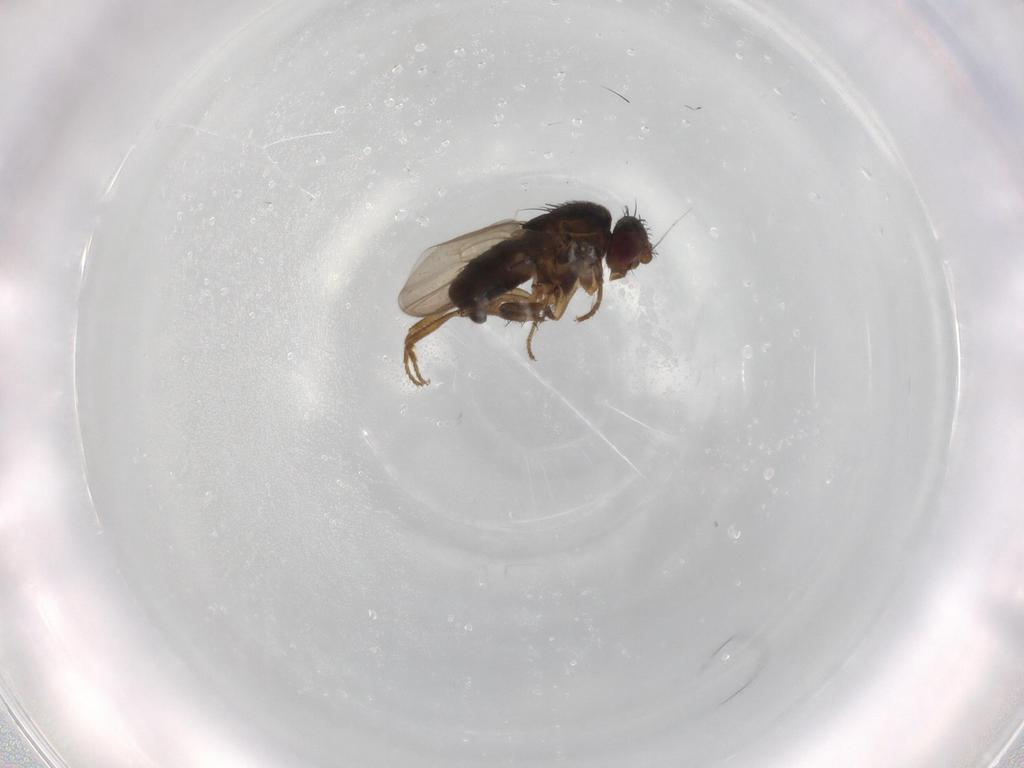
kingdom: Animalia
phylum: Arthropoda
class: Insecta
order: Diptera
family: Sphaeroceridae
